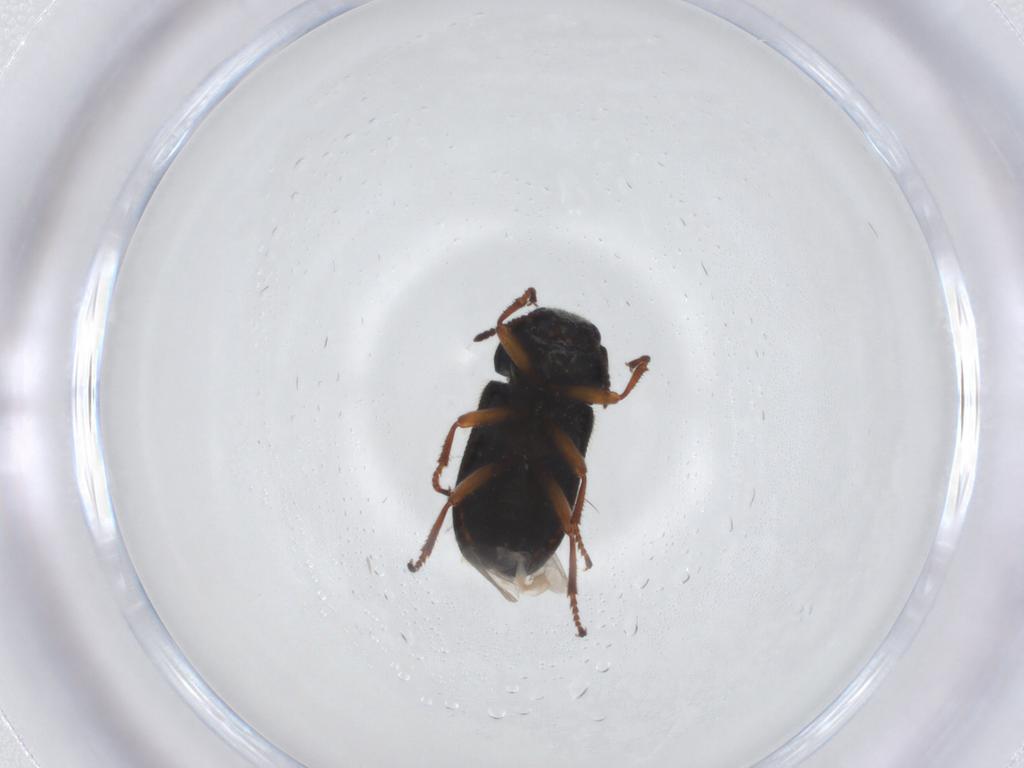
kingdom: Animalia
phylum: Arthropoda
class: Insecta
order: Coleoptera
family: Melyridae
